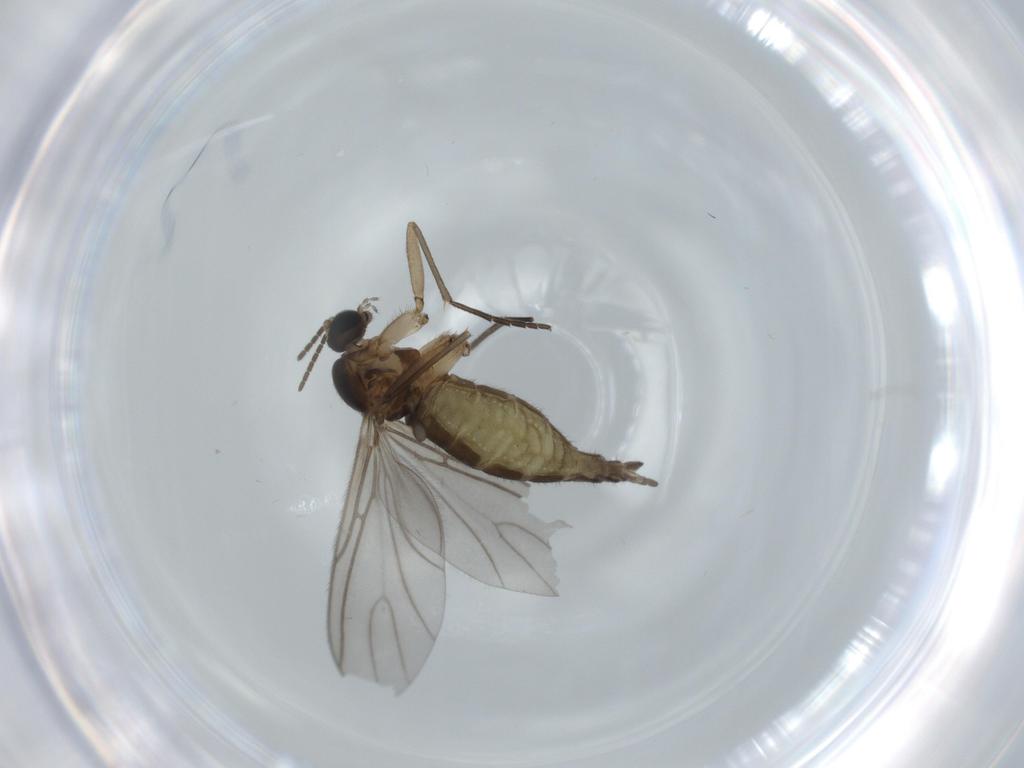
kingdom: Animalia
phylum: Arthropoda
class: Insecta
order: Diptera
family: Sciaridae
